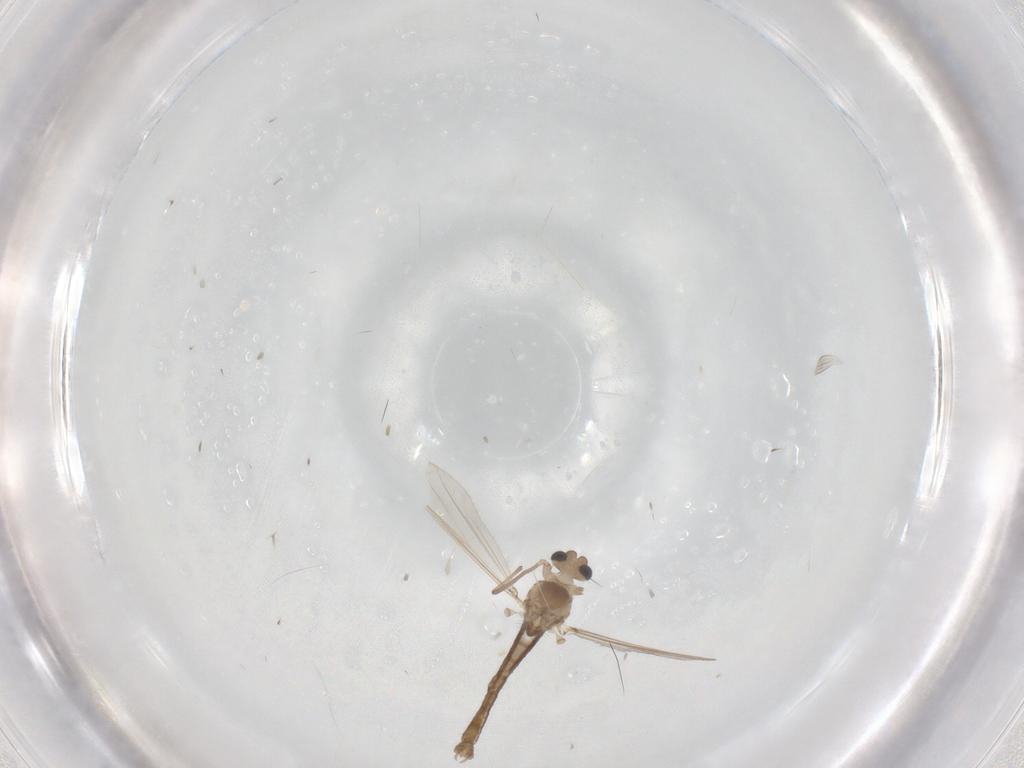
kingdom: Animalia
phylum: Arthropoda
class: Insecta
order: Diptera
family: Chironomidae
